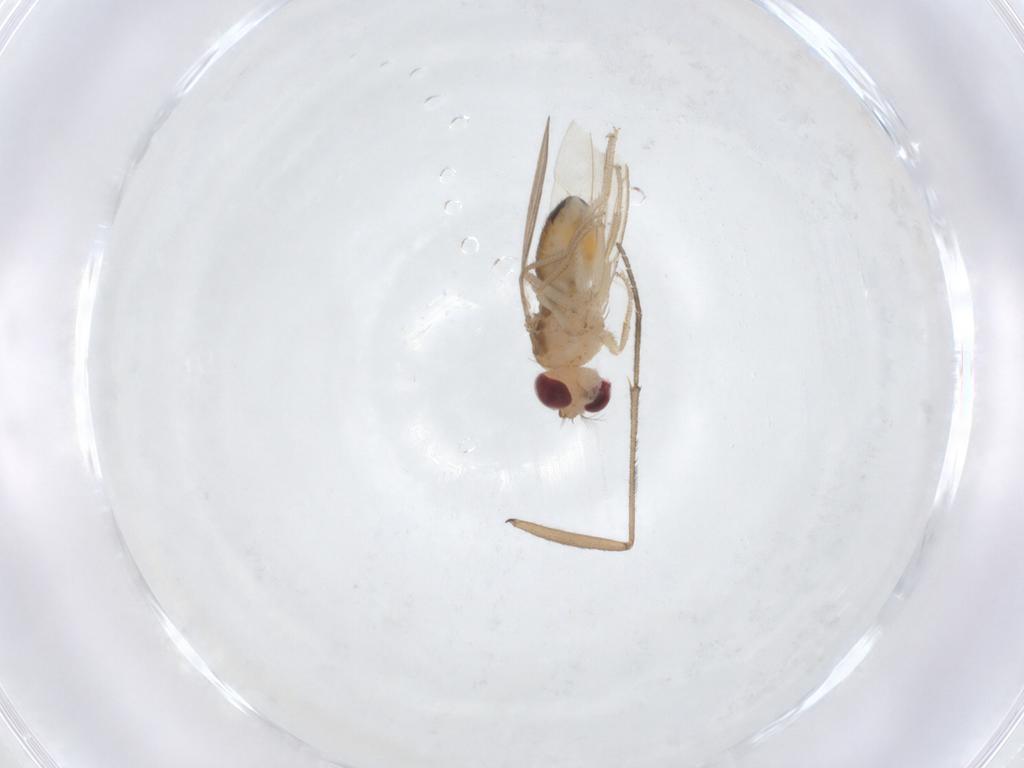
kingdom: Animalia
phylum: Arthropoda
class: Insecta
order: Diptera
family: Drosophilidae
